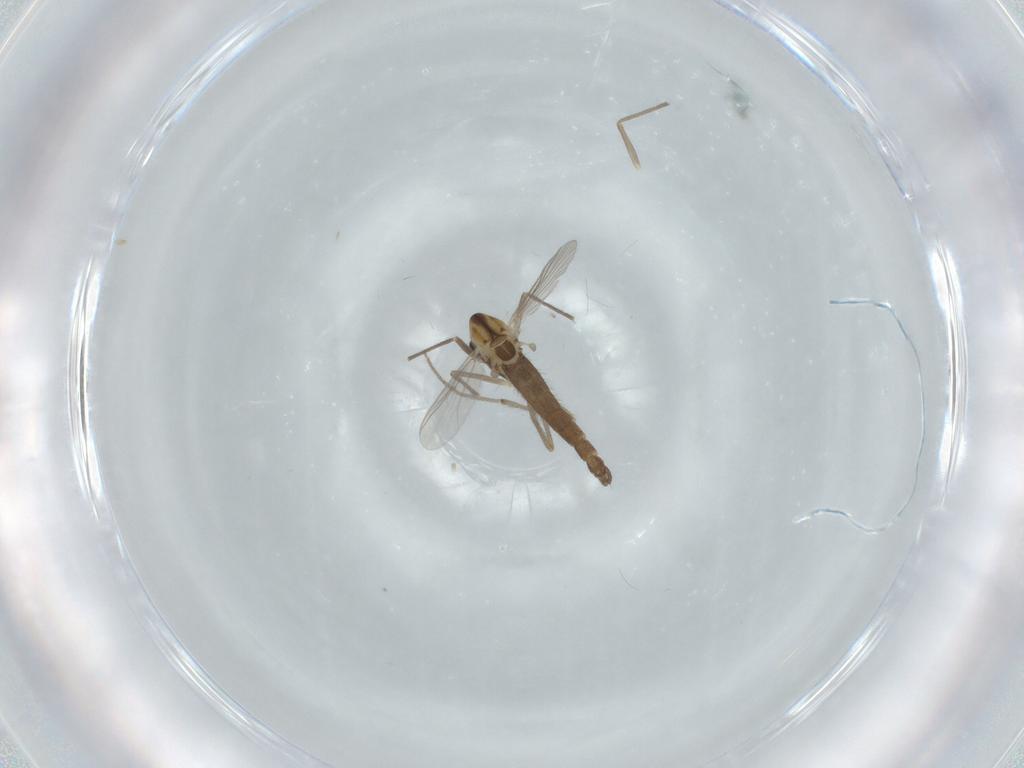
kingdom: Animalia
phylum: Arthropoda
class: Insecta
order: Diptera
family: Chironomidae
